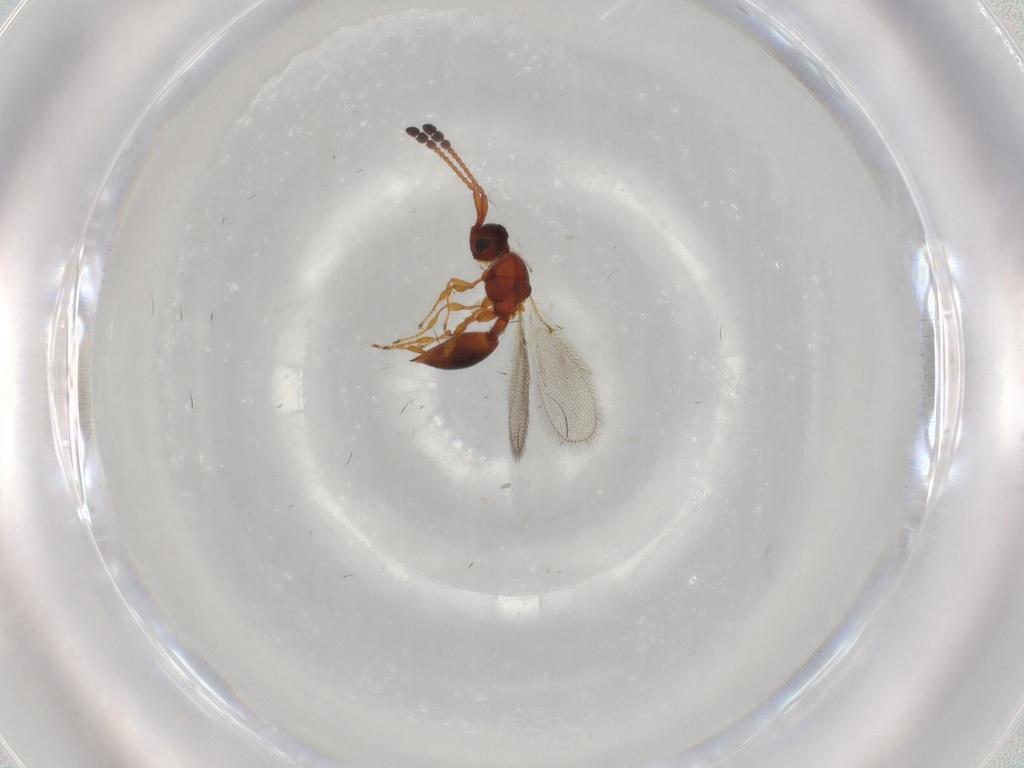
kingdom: Animalia
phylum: Arthropoda
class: Insecta
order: Hymenoptera
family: Diapriidae
